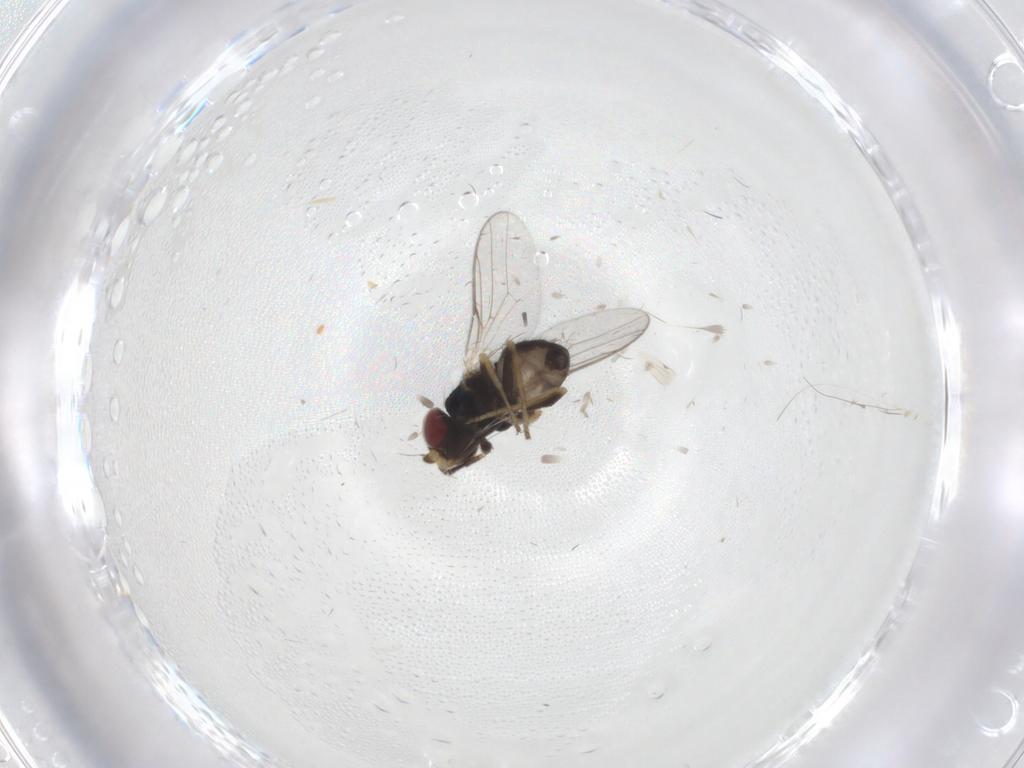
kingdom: Animalia
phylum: Arthropoda
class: Insecta
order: Diptera
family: Chloropidae
